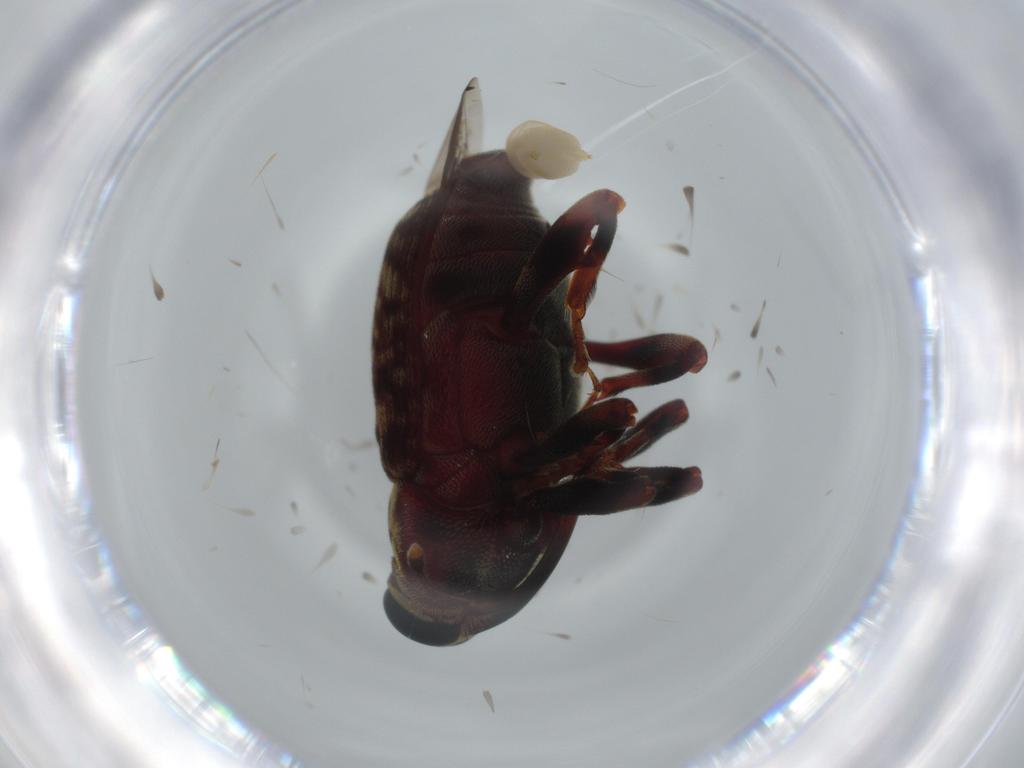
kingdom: Animalia
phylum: Arthropoda
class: Insecta
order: Coleoptera
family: Curculionidae
